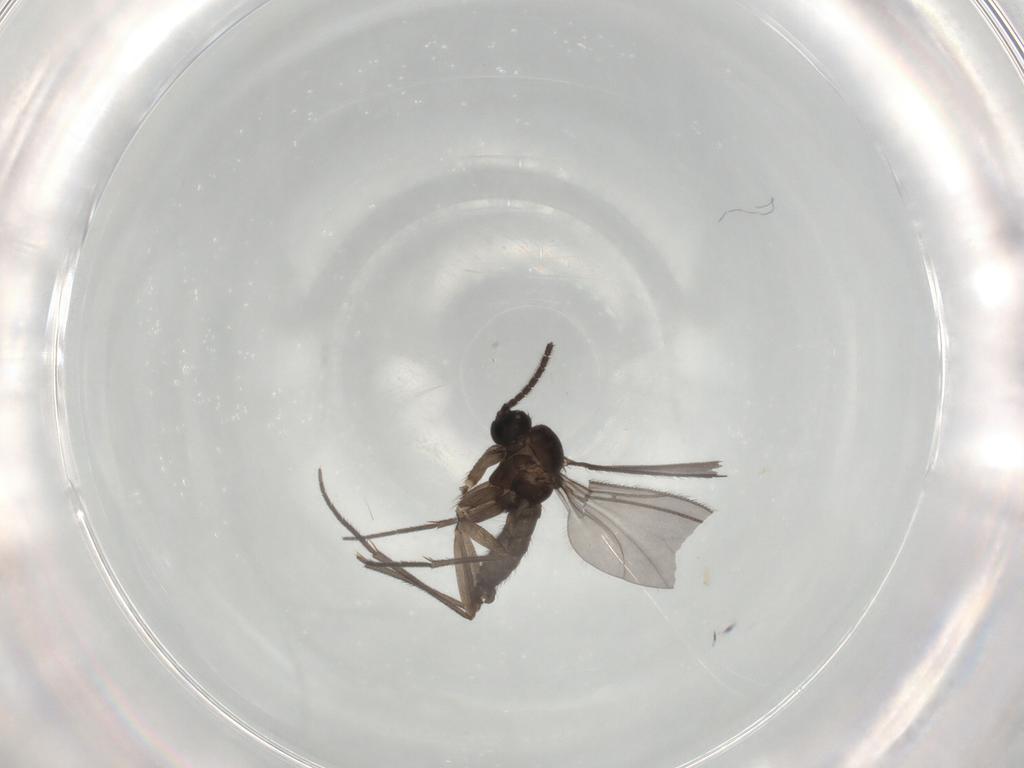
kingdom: Animalia
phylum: Arthropoda
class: Insecta
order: Diptera
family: Sciaridae
